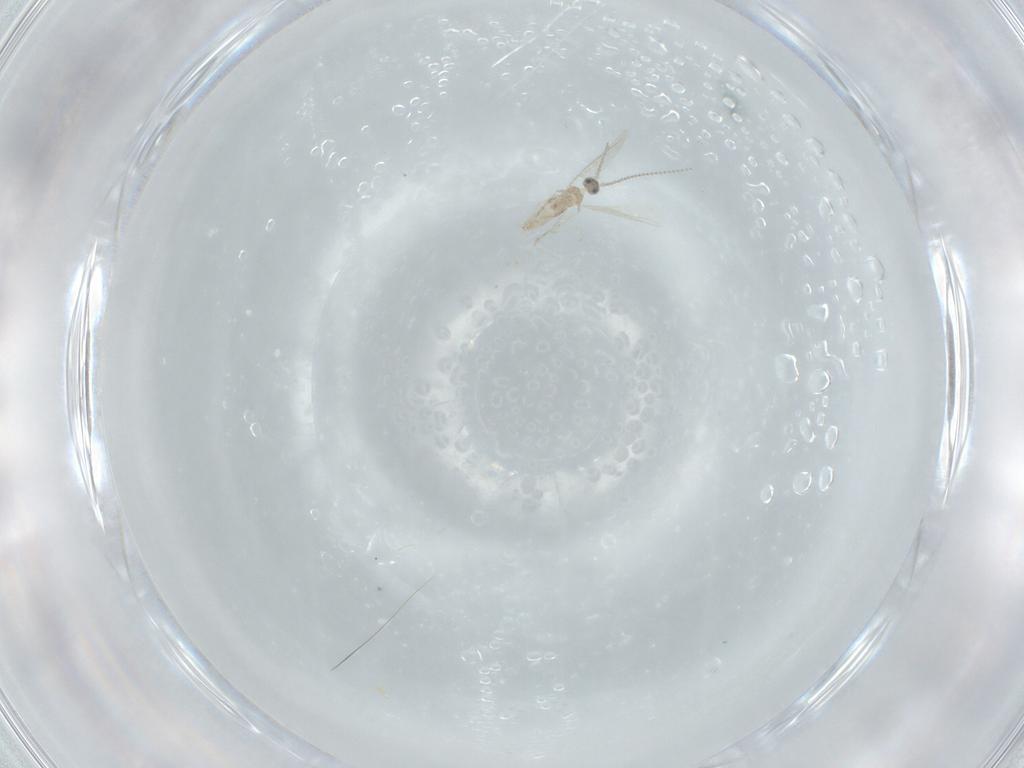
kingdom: Animalia
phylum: Arthropoda
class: Insecta
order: Diptera
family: Cecidomyiidae
